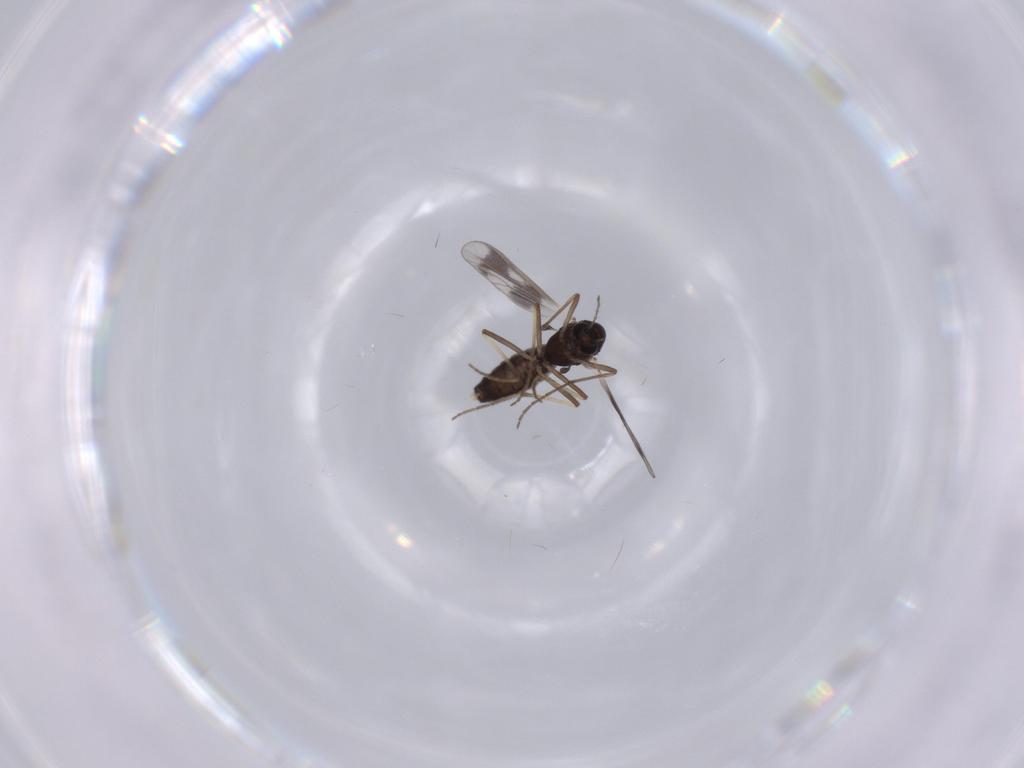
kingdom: Animalia
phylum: Arthropoda
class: Insecta
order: Diptera
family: Chironomidae
